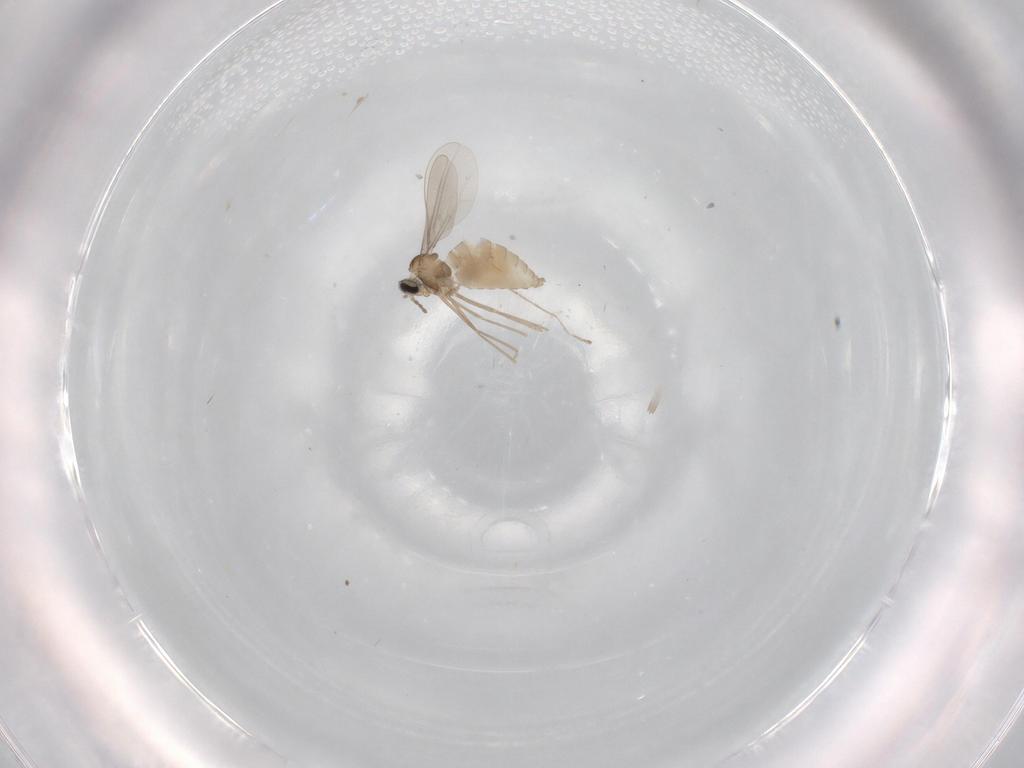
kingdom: Animalia
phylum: Arthropoda
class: Insecta
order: Diptera
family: Cecidomyiidae
